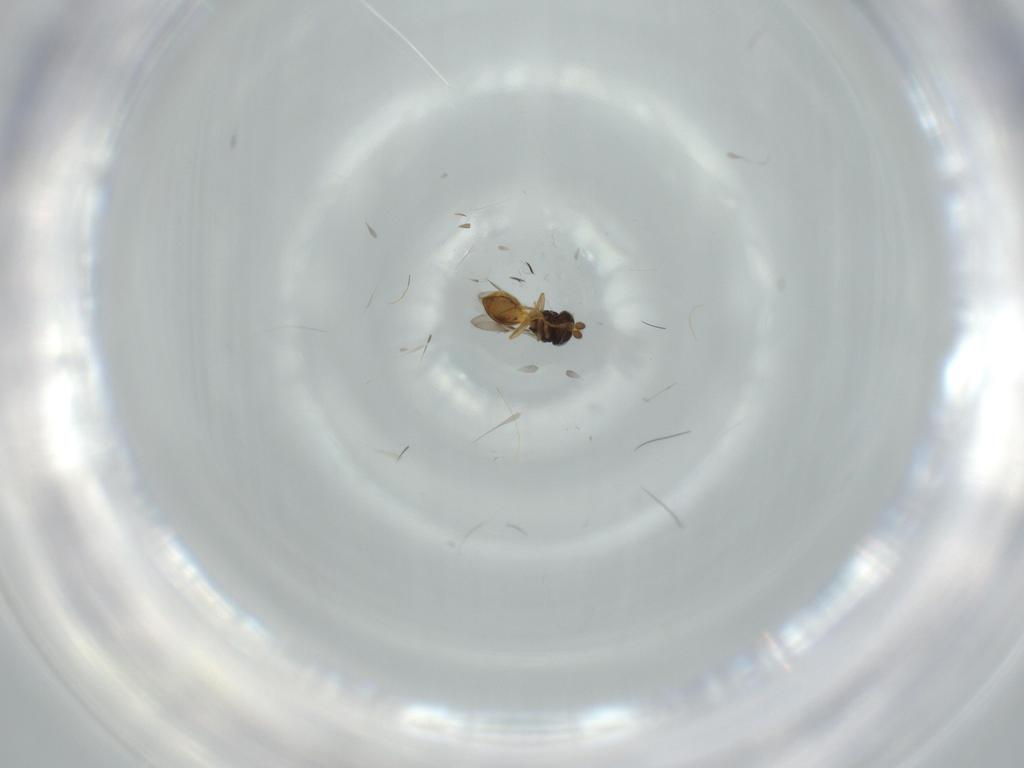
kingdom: Animalia
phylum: Arthropoda
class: Insecta
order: Hymenoptera
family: Scelionidae
